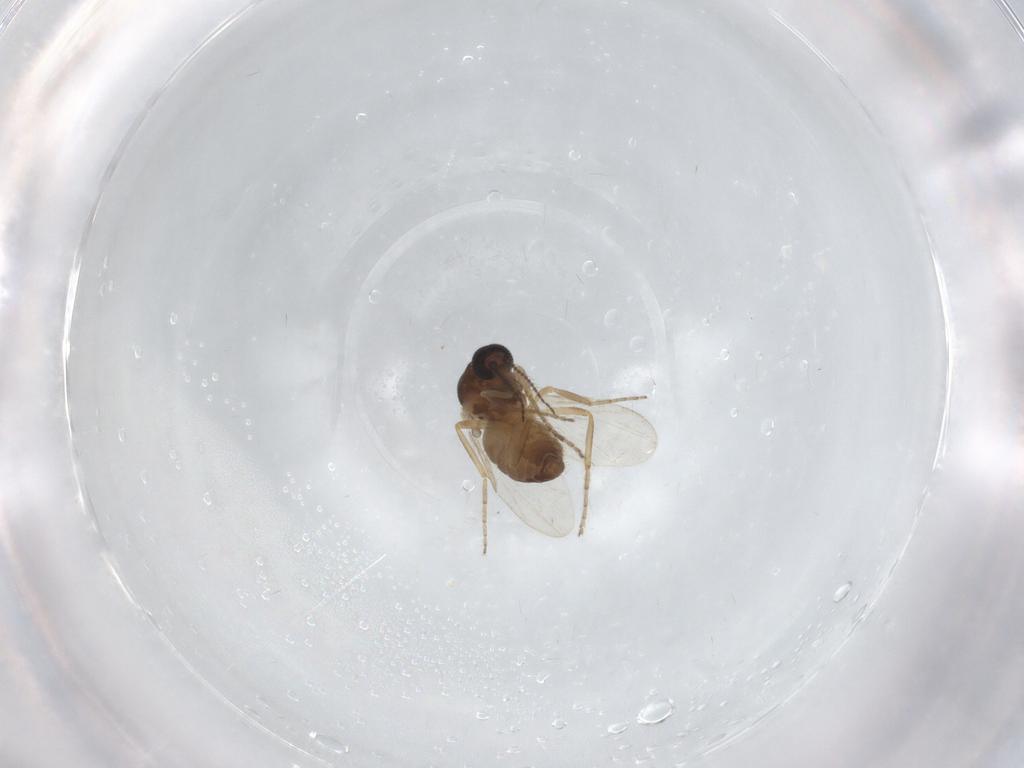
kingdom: Animalia
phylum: Arthropoda
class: Insecta
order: Diptera
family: Ceratopogonidae
